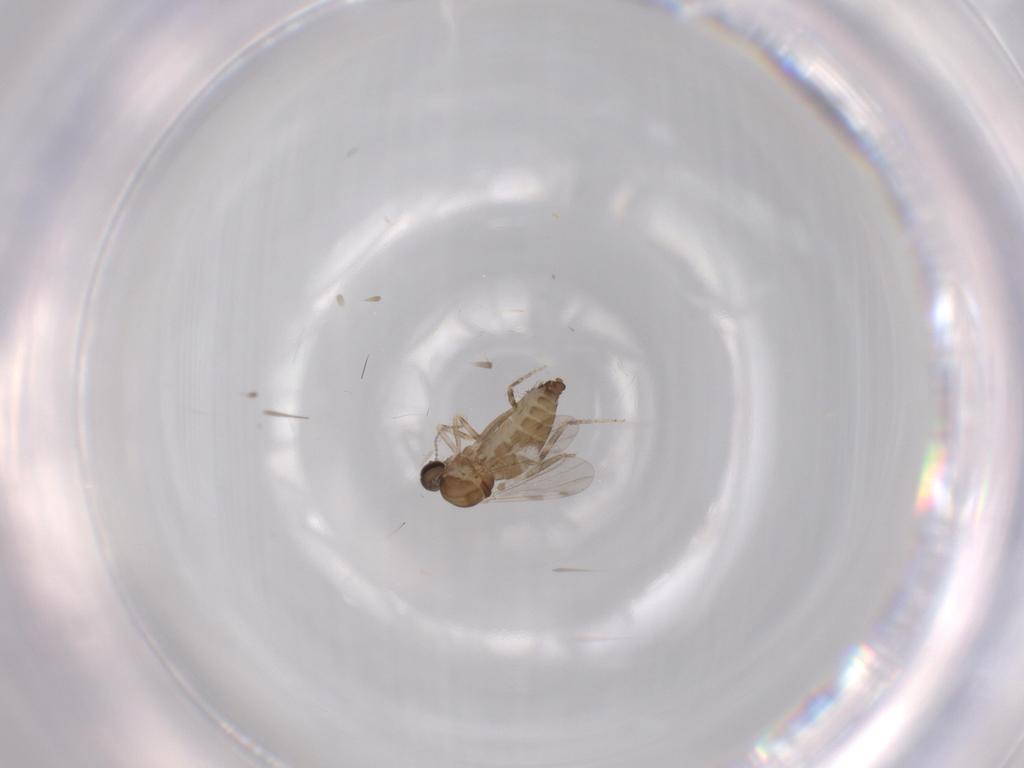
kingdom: Animalia
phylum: Arthropoda
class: Insecta
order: Diptera
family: Ceratopogonidae
